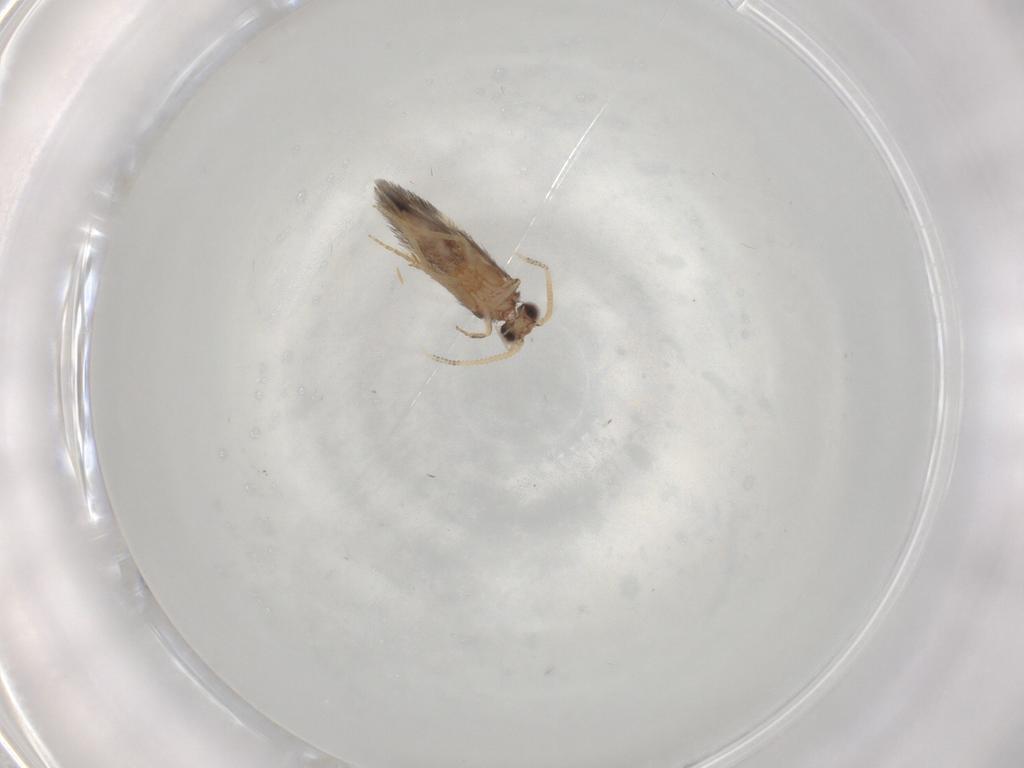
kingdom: Animalia
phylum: Arthropoda
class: Insecta
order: Trichoptera
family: Hydroptilidae
